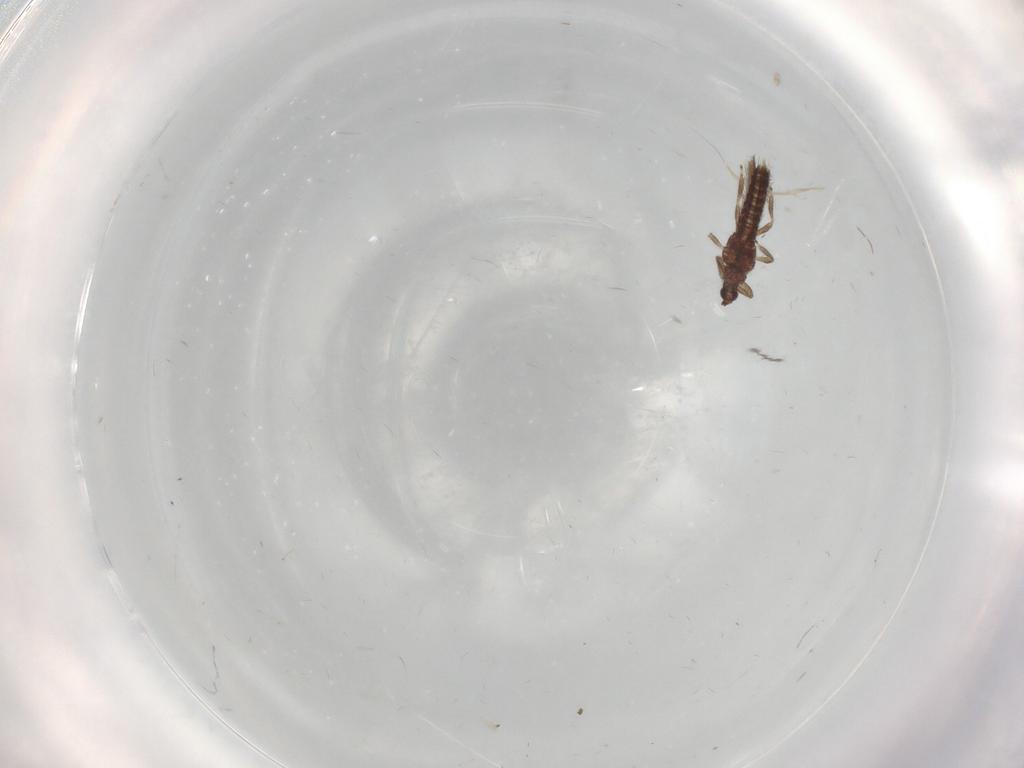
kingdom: Animalia
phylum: Arthropoda
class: Insecta
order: Thysanoptera
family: Thripidae
